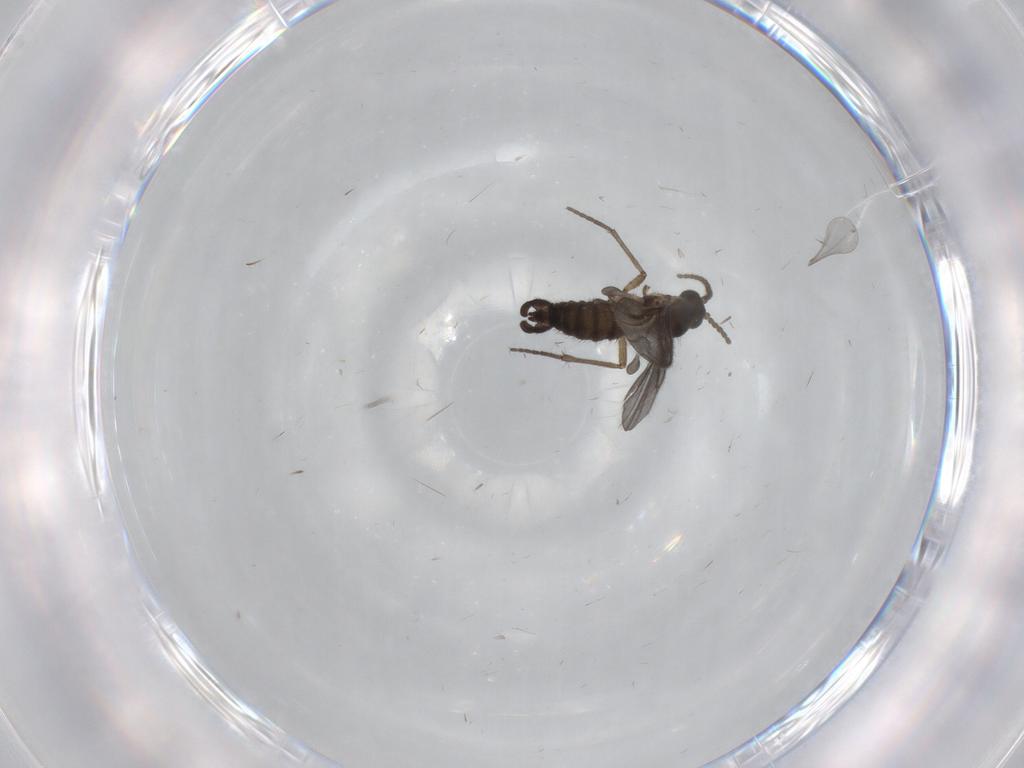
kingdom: Animalia
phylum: Arthropoda
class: Insecta
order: Diptera
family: Sciaridae
